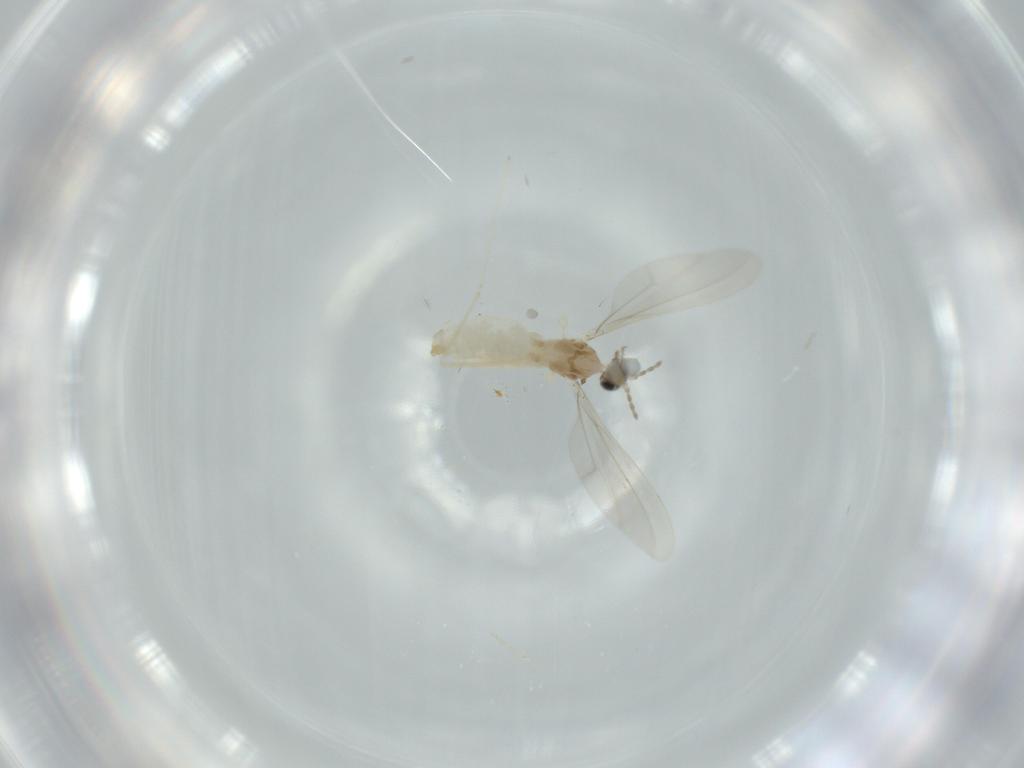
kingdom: Animalia
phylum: Arthropoda
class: Insecta
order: Diptera
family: Cecidomyiidae
